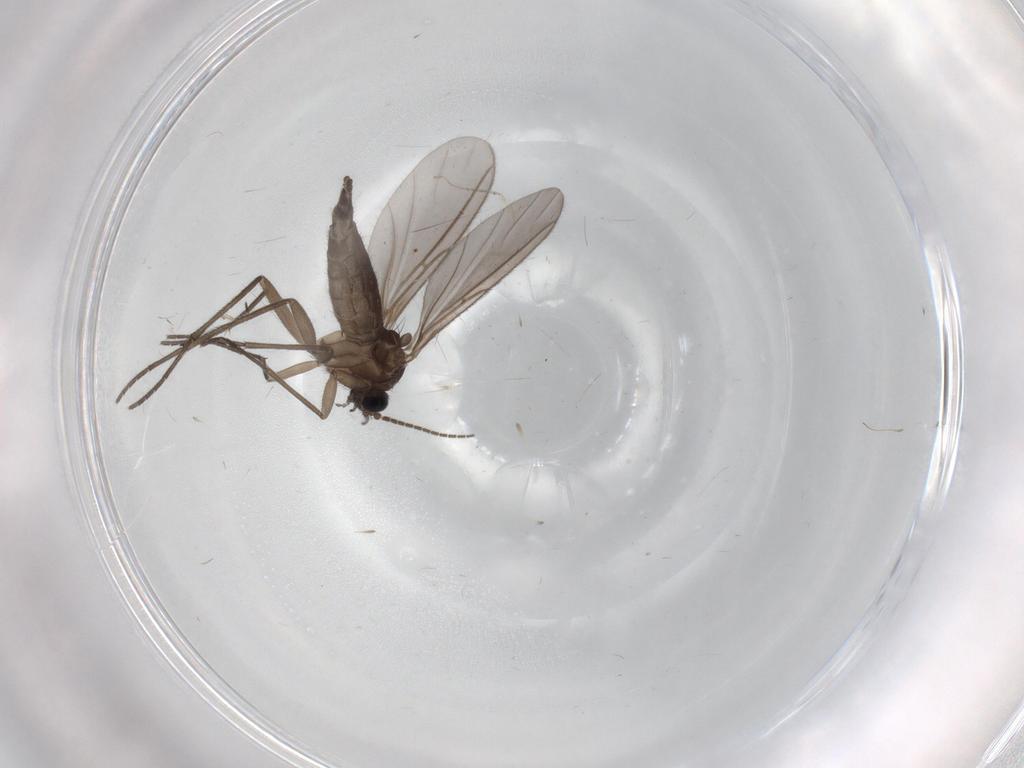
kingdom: Animalia
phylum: Arthropoda
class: Insecta
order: Diptera
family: Sciaridae
